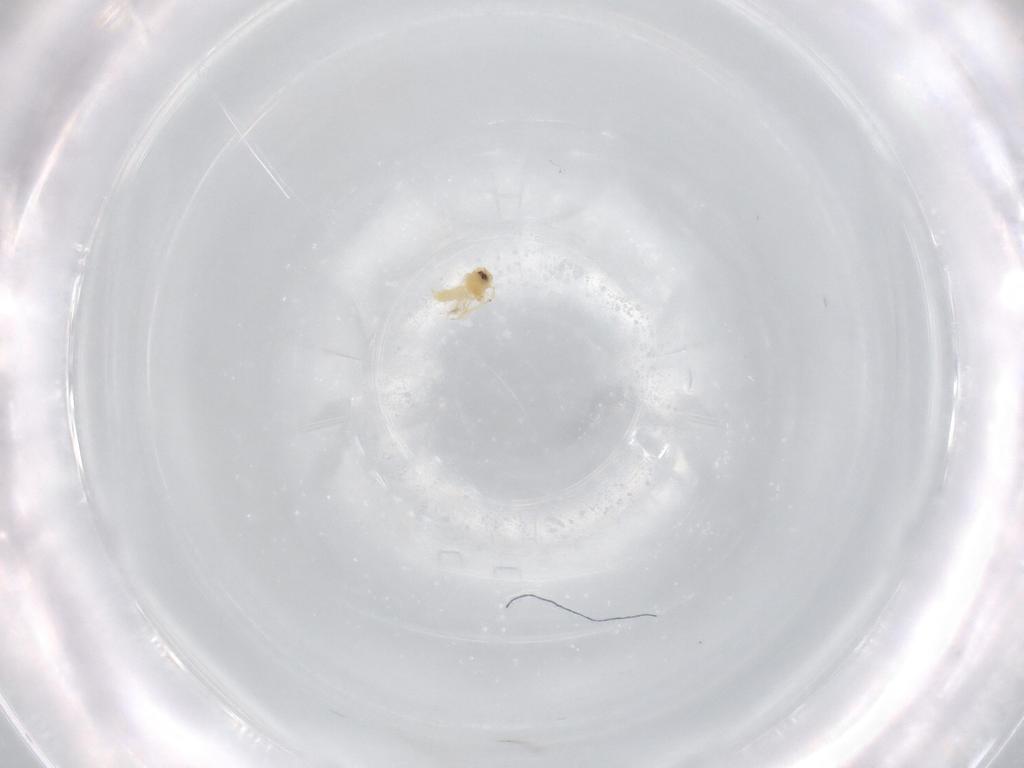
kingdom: Animalia
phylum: Arthropoda
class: Insecta
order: Hemiptera
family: Aleyrodidae
